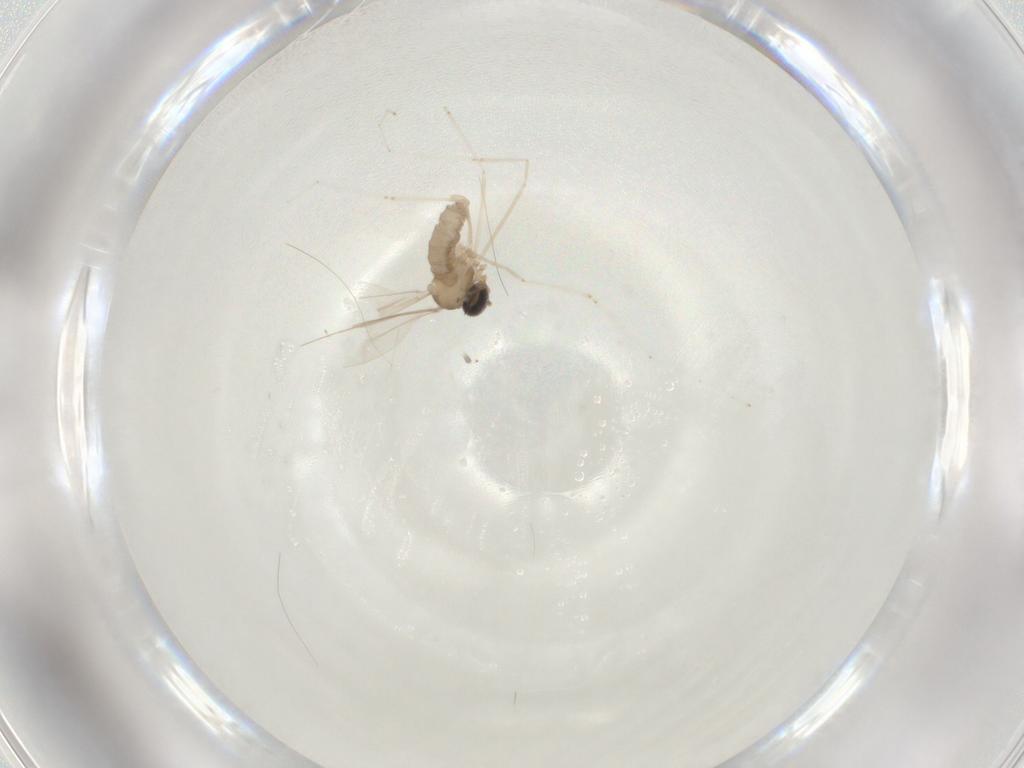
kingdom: Animalia
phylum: Arthropoda
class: Insecta
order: Diptera
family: Cecidomyiidae
